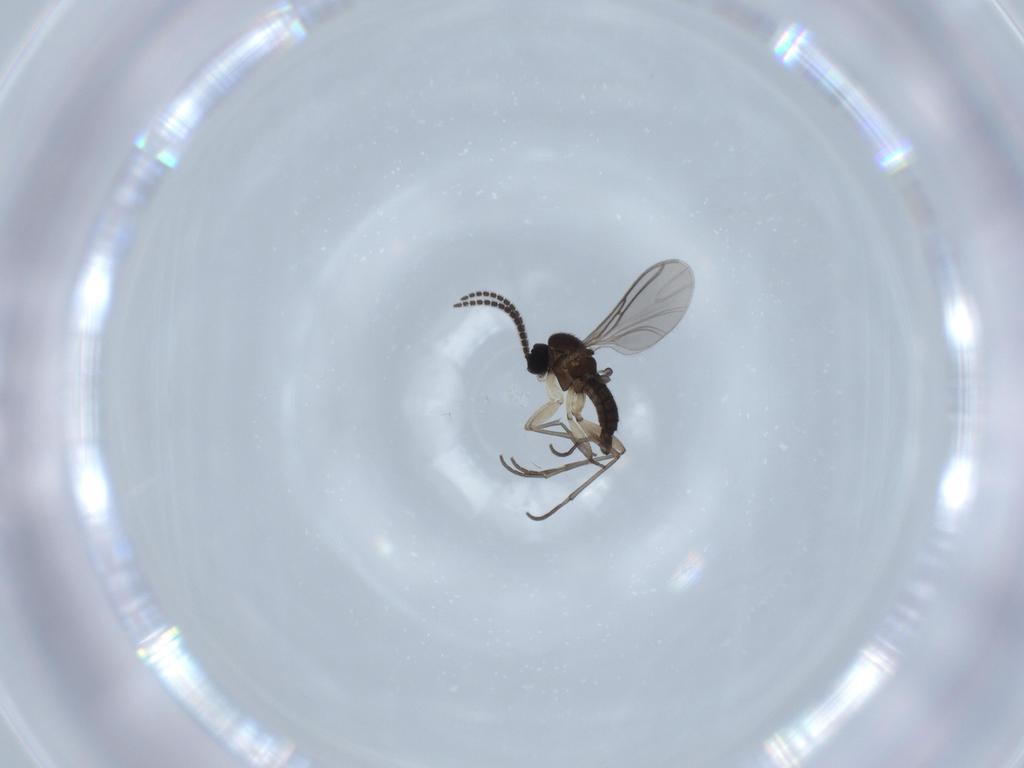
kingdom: Animalia
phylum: Arthropoda
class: Insecta
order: Diptera
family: Sciaridae
